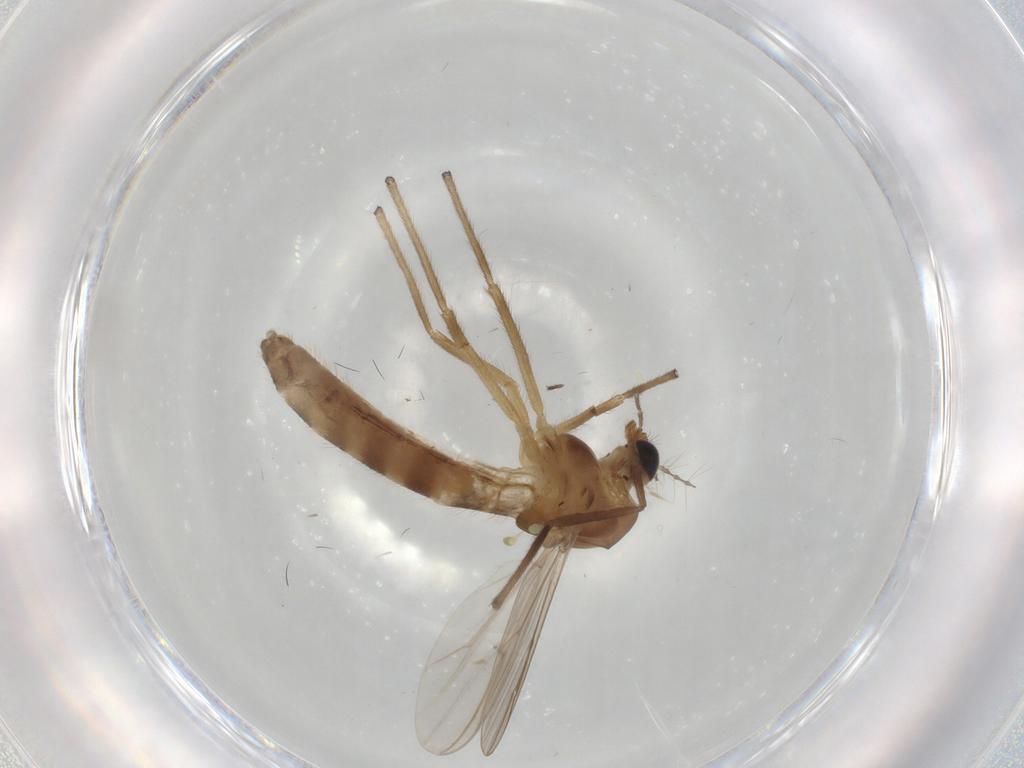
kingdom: Animalia
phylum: Arthropoda
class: Insecta
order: Diptera
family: Chironomidae
